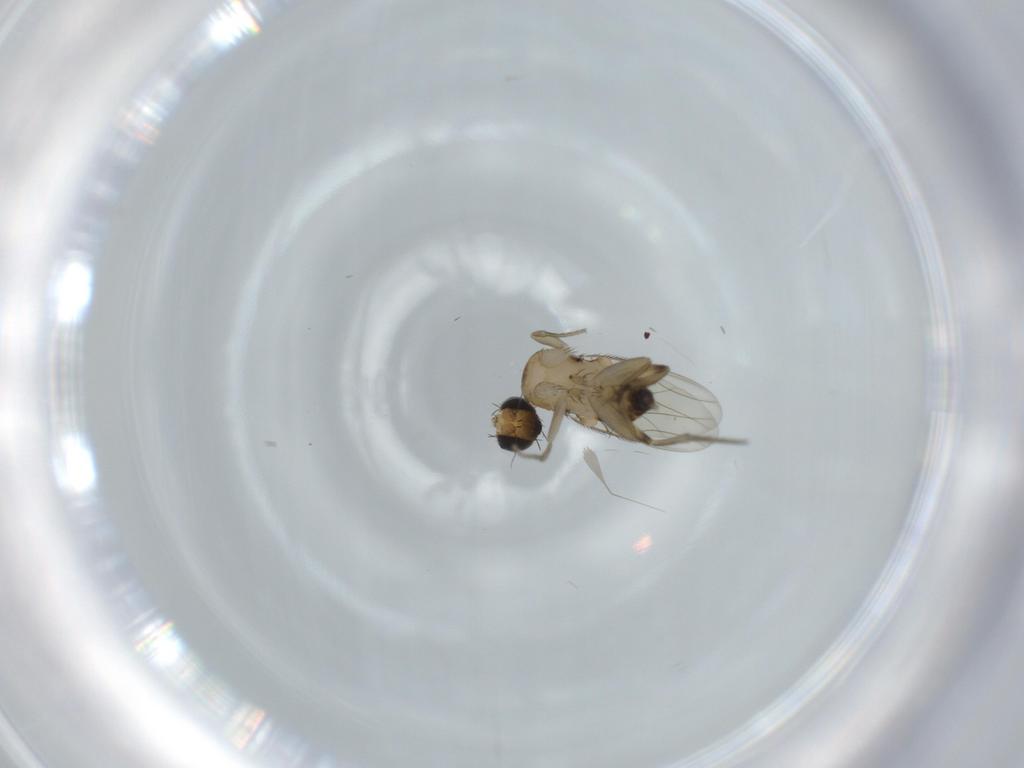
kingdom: Animalia
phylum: Arthropoda
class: Insecta
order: Diptera
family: Phoridae
